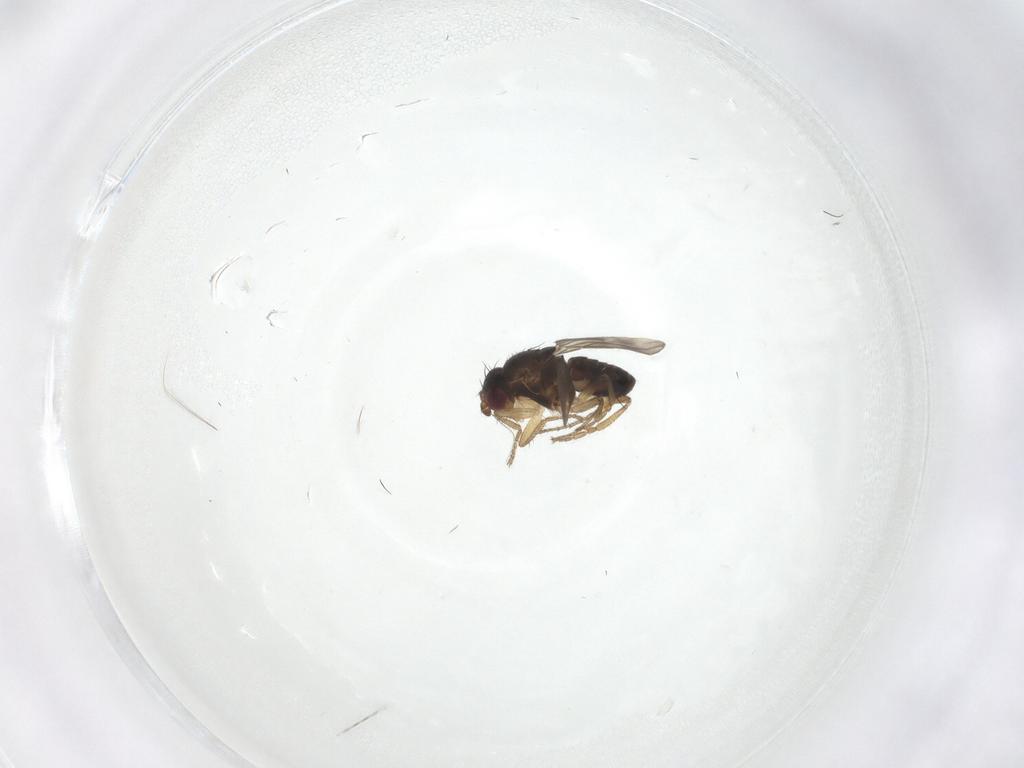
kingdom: Animalia
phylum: Arthropoda
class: Insecta
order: Diptera
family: Sphaeroceridae
